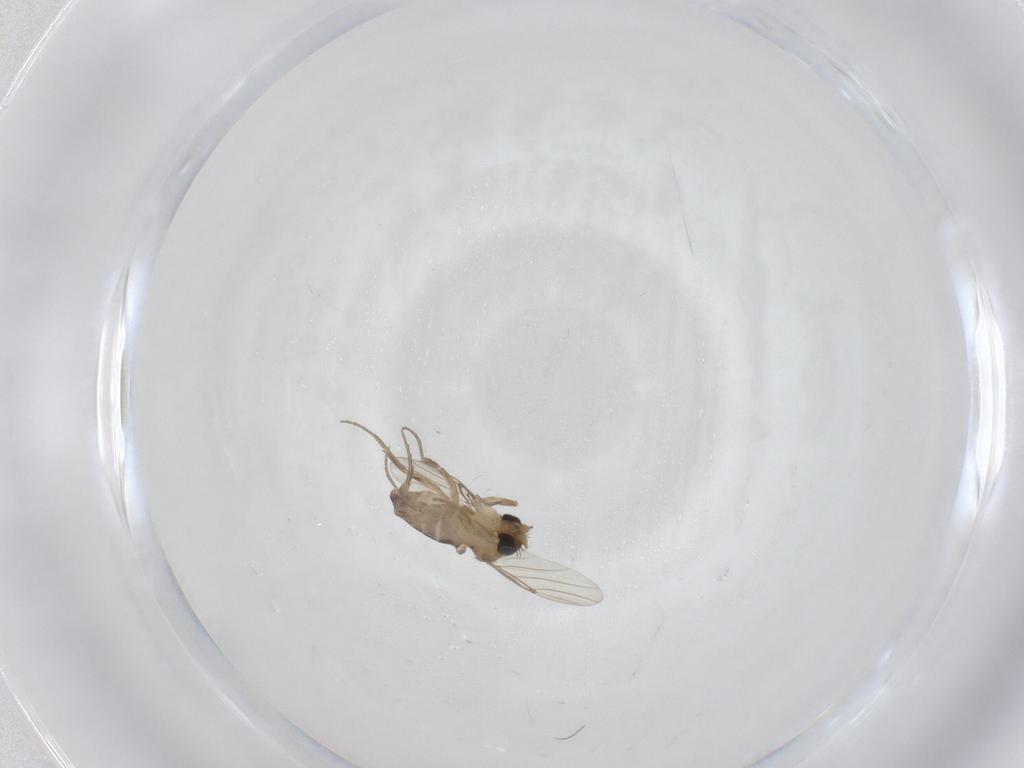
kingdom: Animalia
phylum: Arthropoda
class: Insecta
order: Diptera
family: Phoridae
